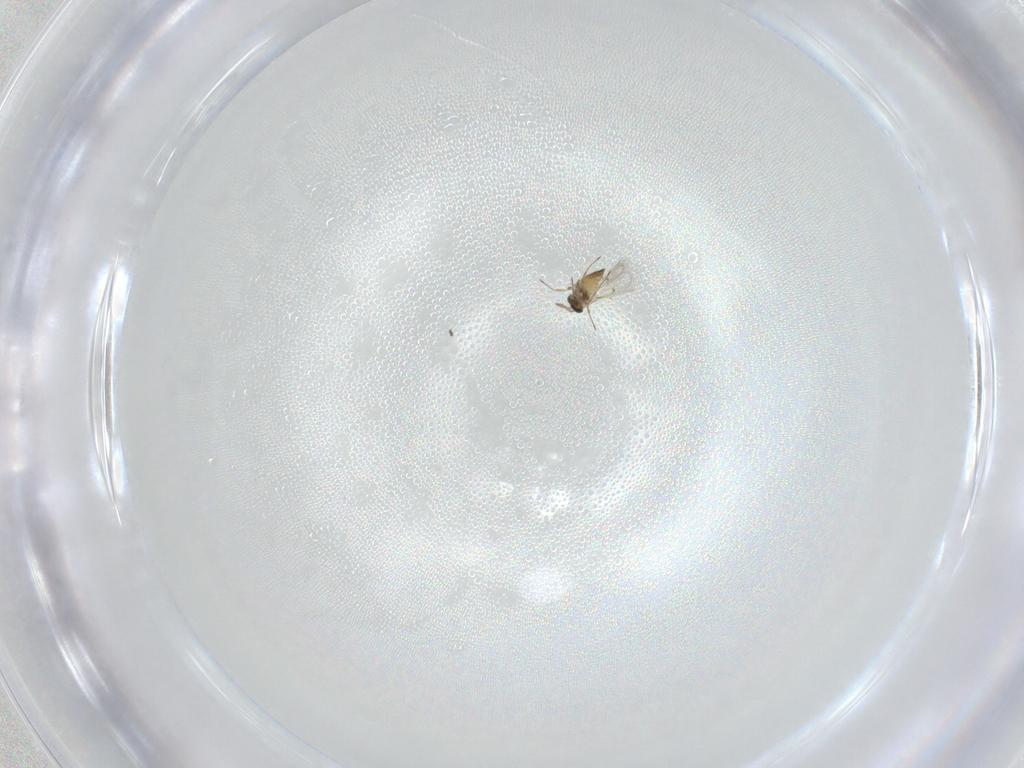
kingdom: Animalia
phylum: Arthropoda
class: Insecta
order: Hymenoptera
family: Trichogrammatidae
